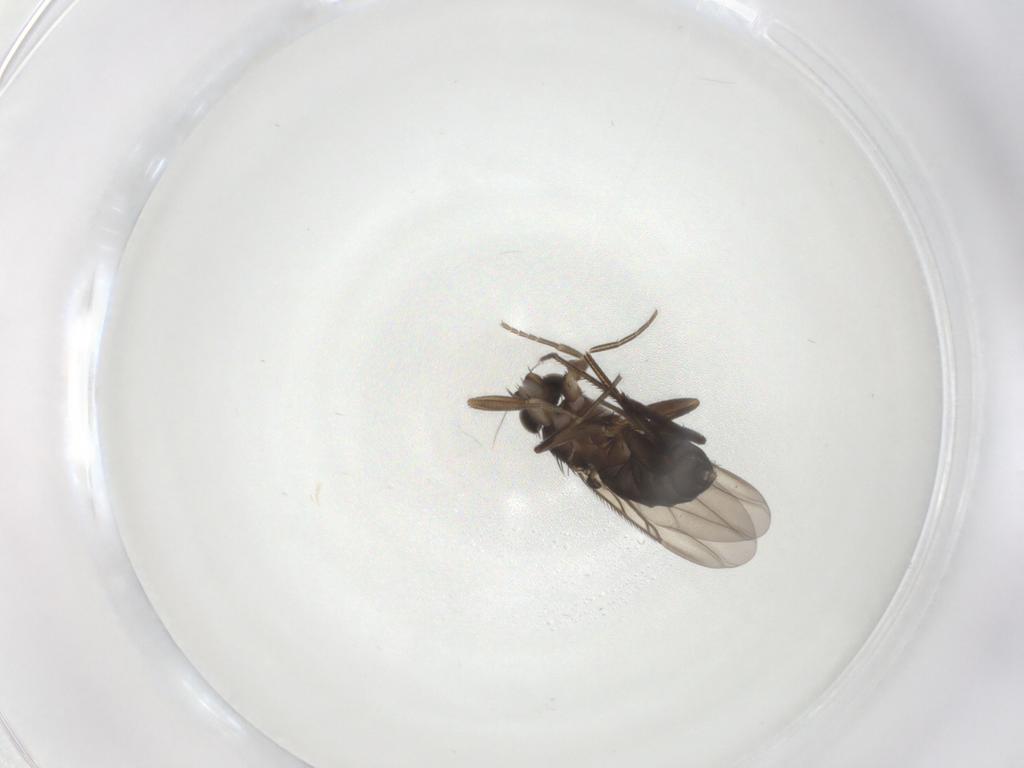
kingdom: Animalia
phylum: Arthropoda
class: Insecta
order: Diptera
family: Phoridae
